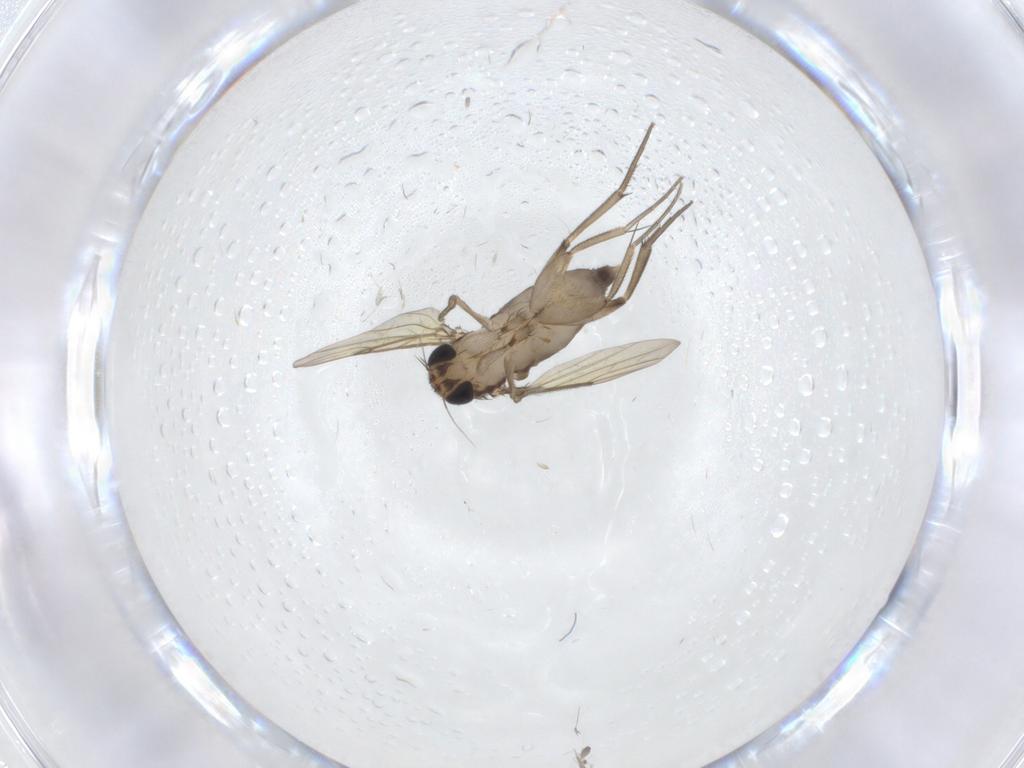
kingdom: Animalia
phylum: Arthropoda
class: Insecta
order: Diptera
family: Phoridae
